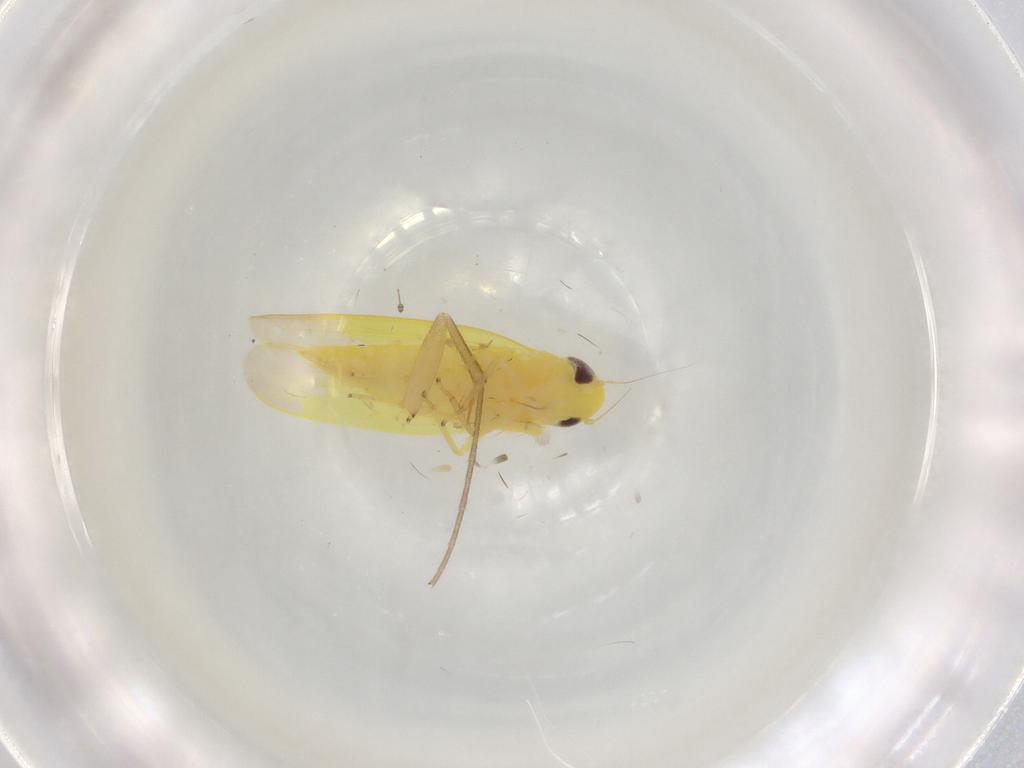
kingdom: Animalia
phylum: Arthropoda
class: Insecta
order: Hemiptera
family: Cicadellidae
